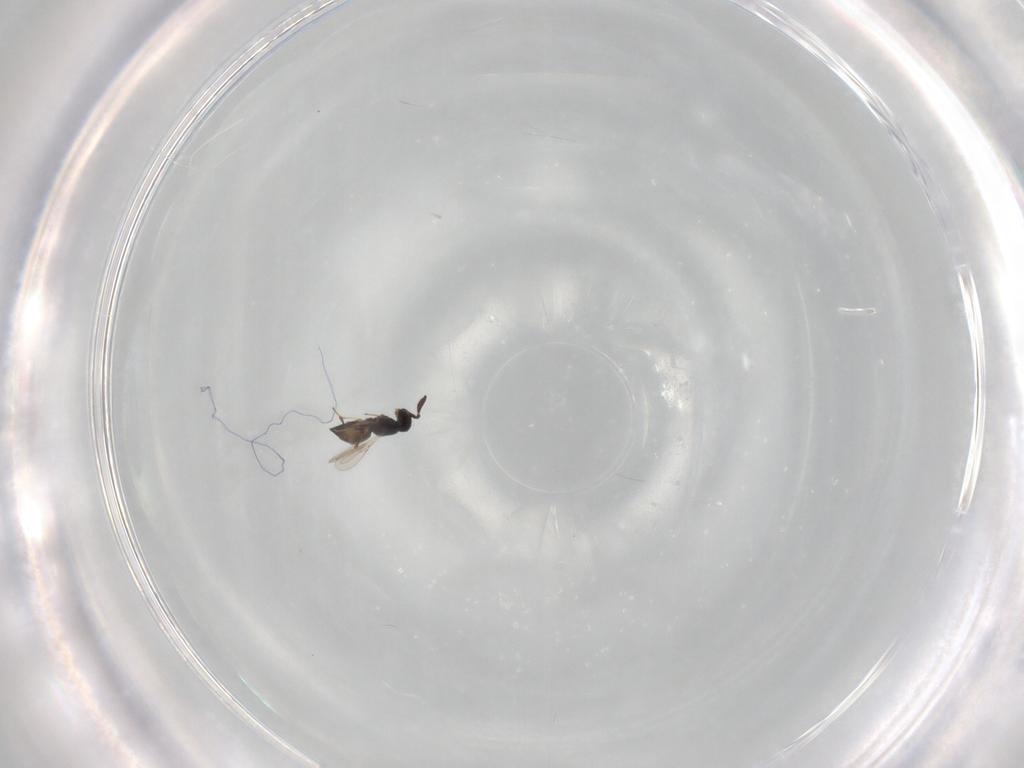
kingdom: Animalia
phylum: Arthropoda
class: Insecta
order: Hymenoptera
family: Scelionidae
